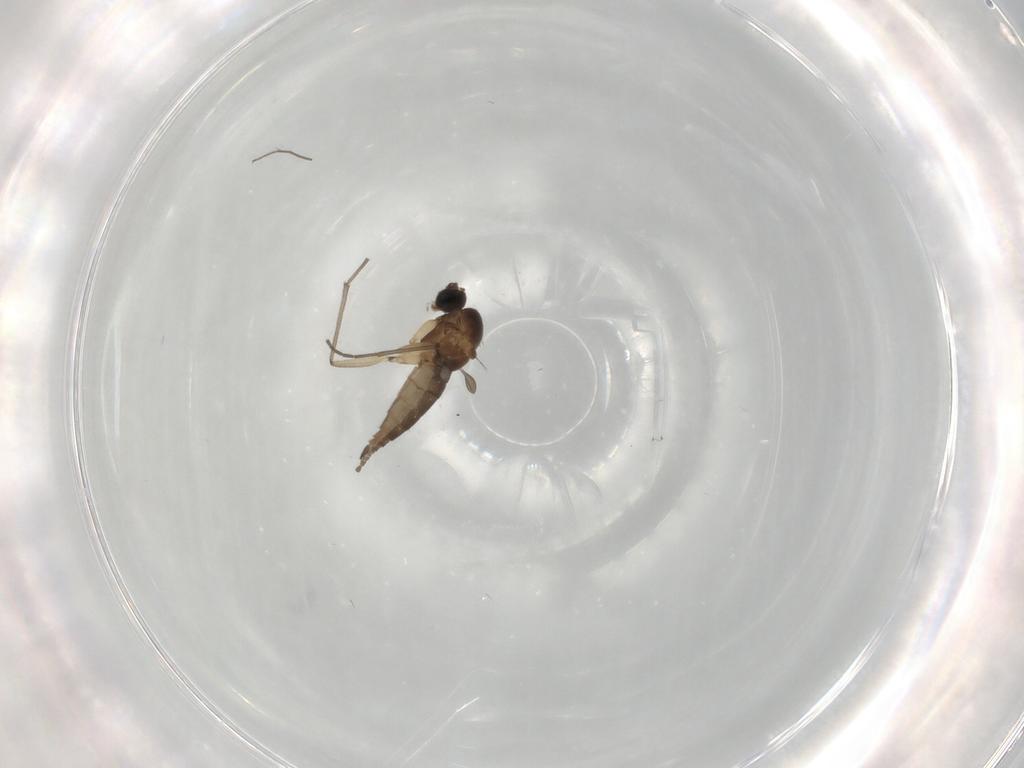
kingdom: Animalia
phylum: Arthropoda
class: Insecta
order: Diptera
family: Sciaridae
